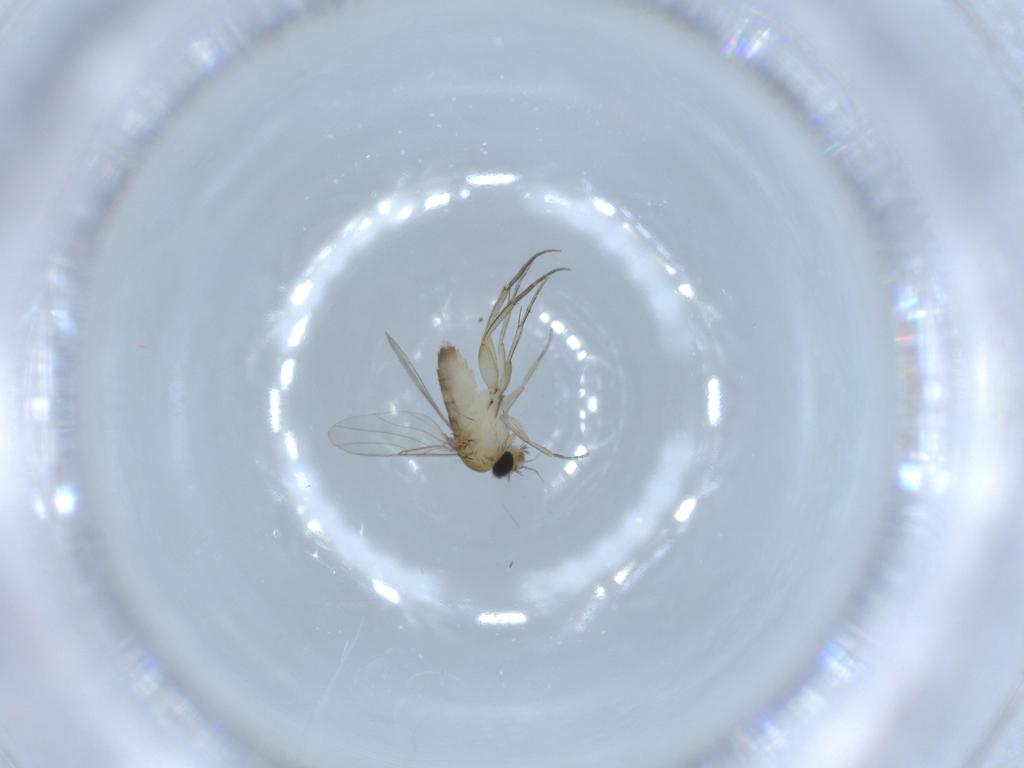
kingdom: Animalia
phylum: Arthropoda
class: Insecta
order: Diptera
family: Phoridae
